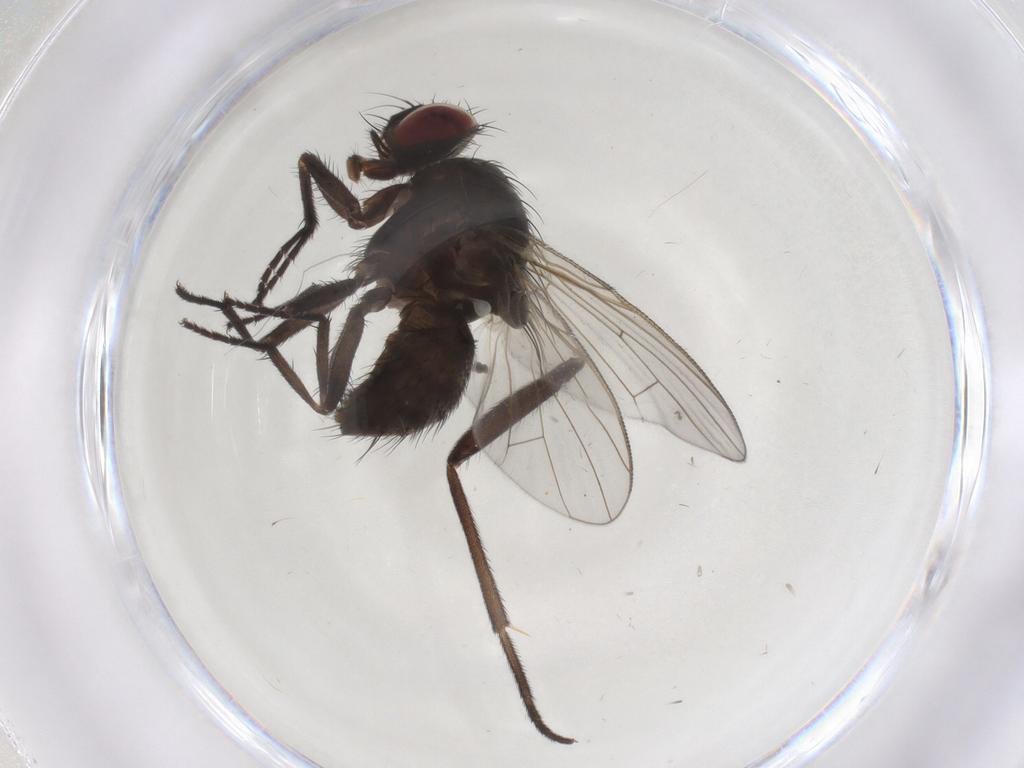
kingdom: Animalia
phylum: Arthropoda
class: Insecta
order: Diptera
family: Muscidae
